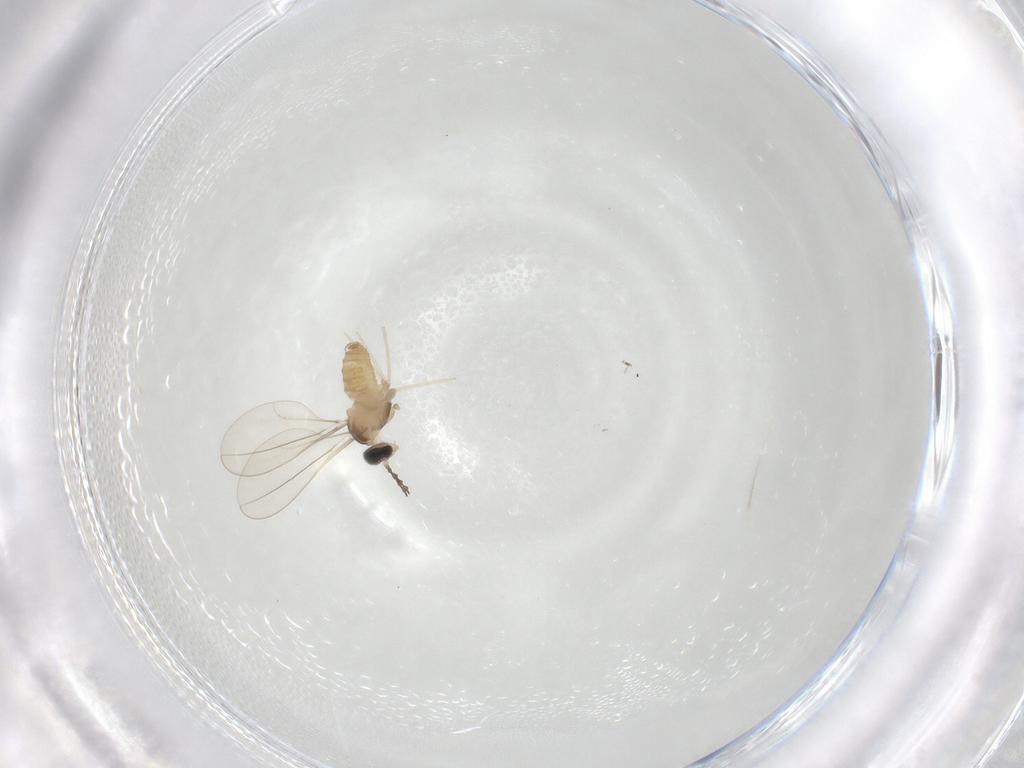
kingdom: Animalia
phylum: Arthropoda
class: Insecta
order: Diptera
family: Cecidomyiidae
